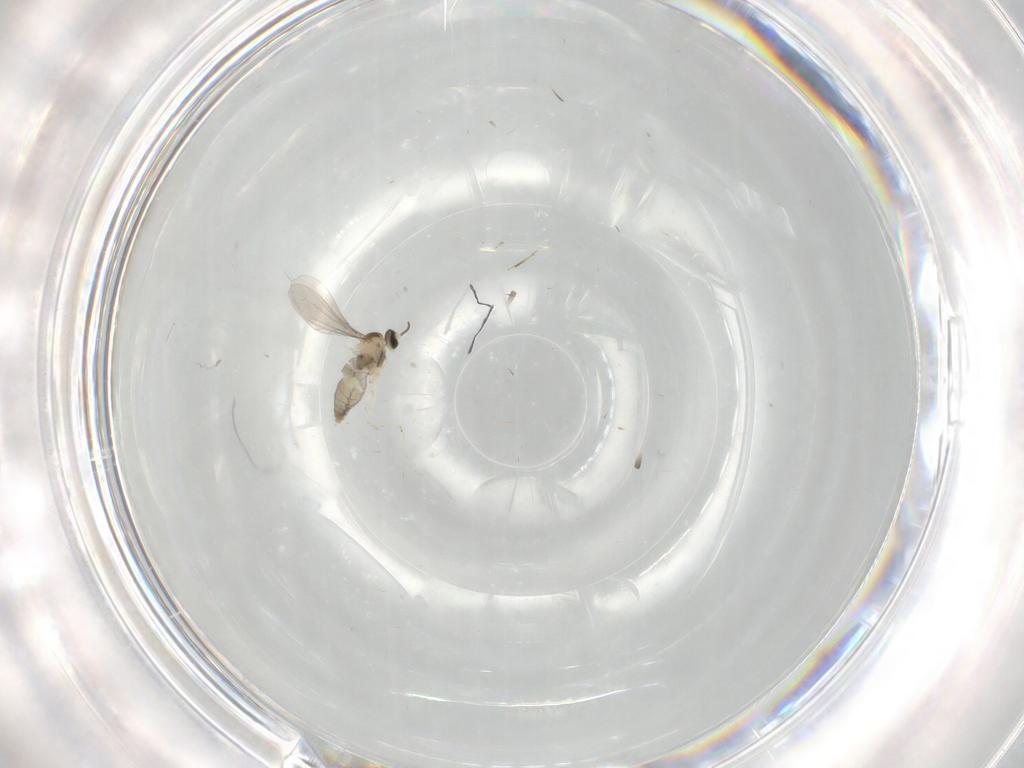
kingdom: Animalia
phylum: Arthropoda
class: Insecta
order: Diptera
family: Cecidomyiidae
